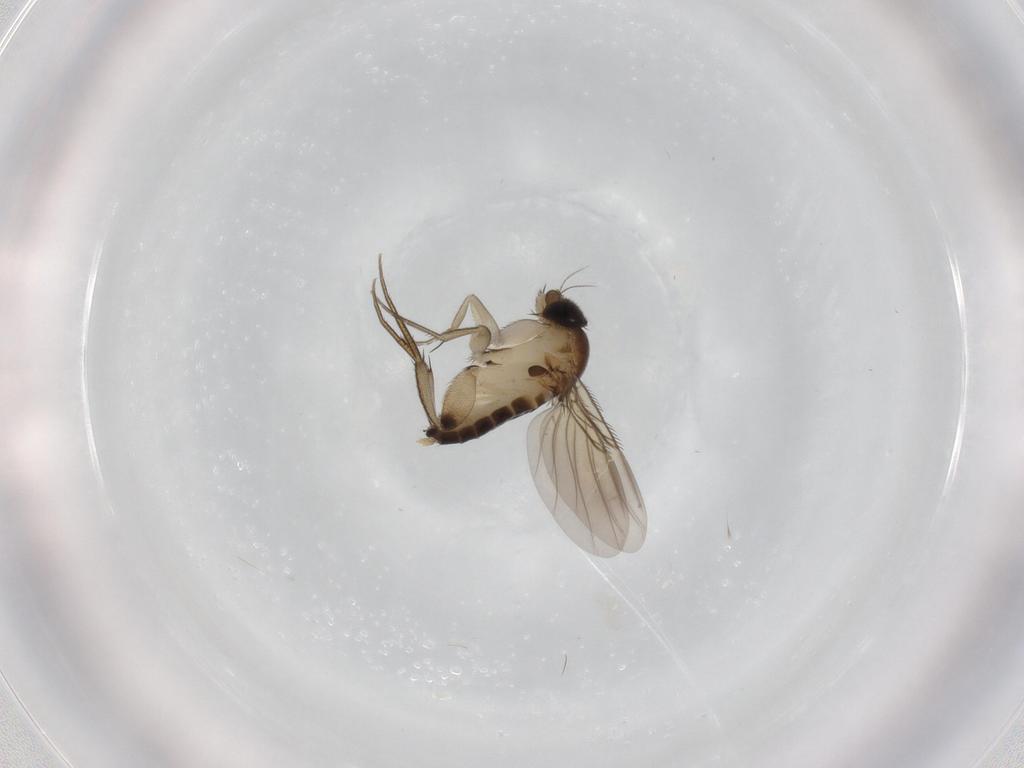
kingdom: Animalia
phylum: Arthropoda
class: Insecta
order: Diptera
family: Phoridae
